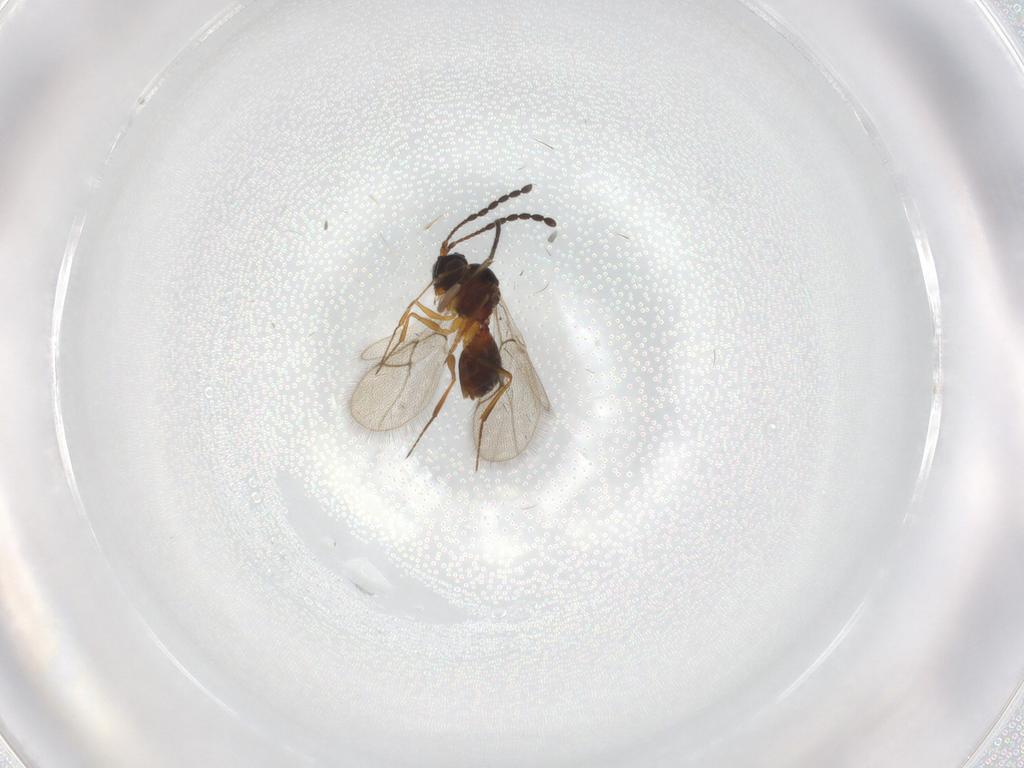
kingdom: Animalia
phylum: Arthropoda
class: Insecta
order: Hymenoptera
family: Figitidae
